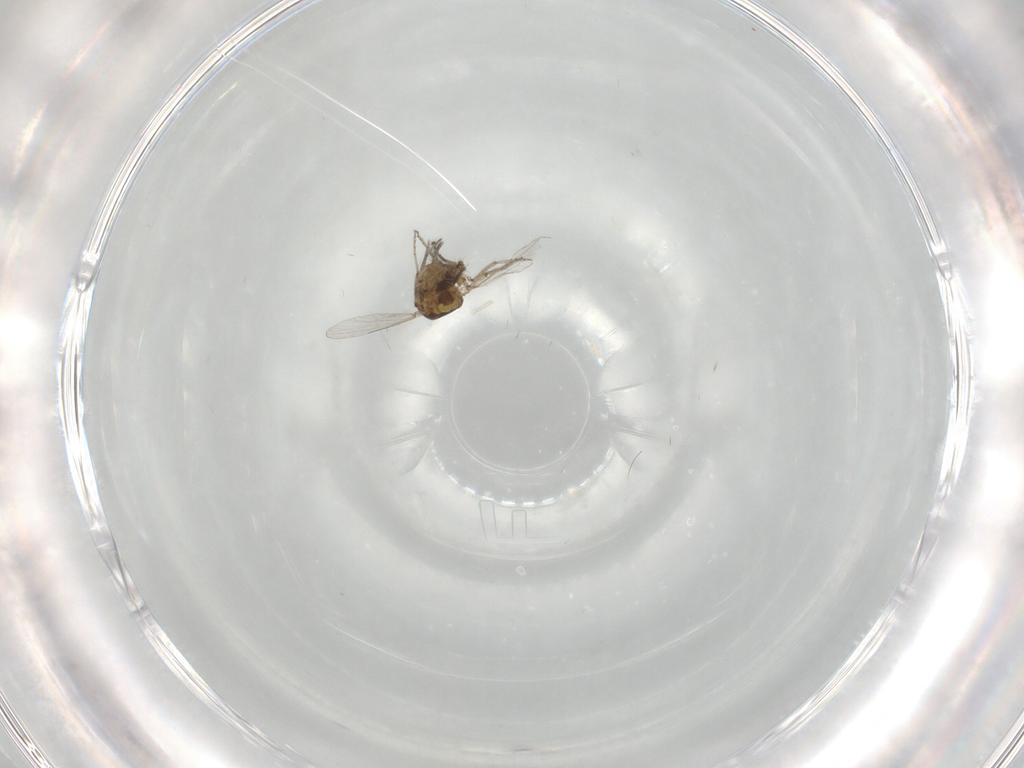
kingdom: Animalia
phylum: Arthropoda
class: Insecta
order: Diptera
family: Ceratopogonidae
